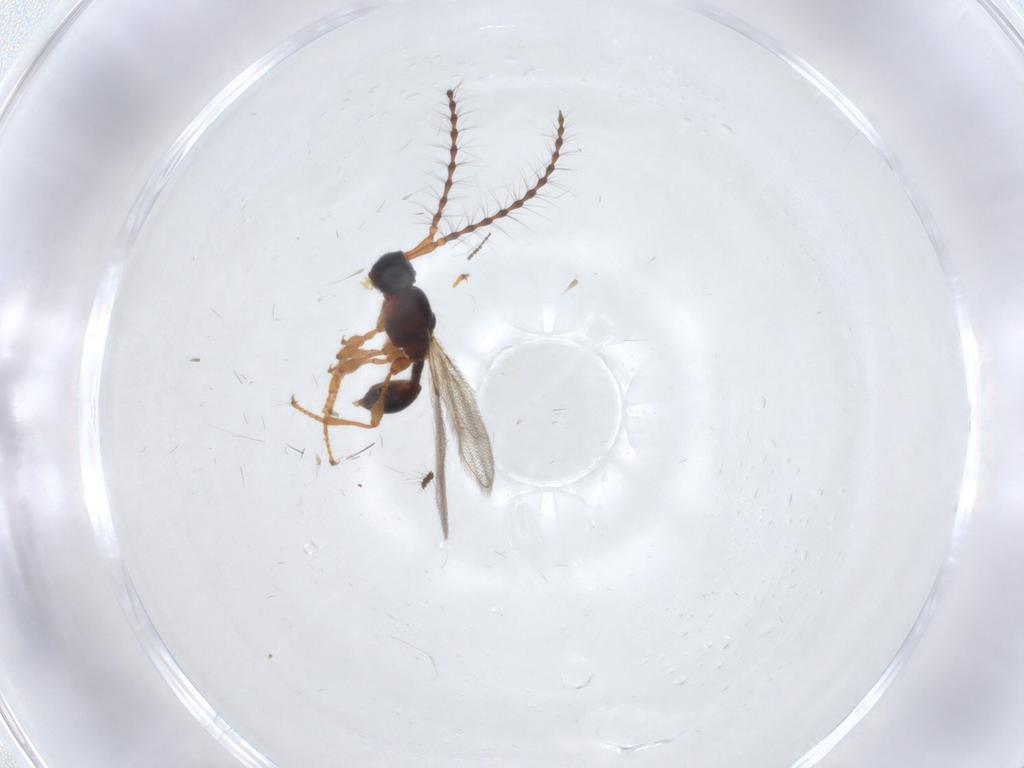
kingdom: Animalia
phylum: Arthropoda
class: Insecta
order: Hymenoptera
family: Diapriidae
